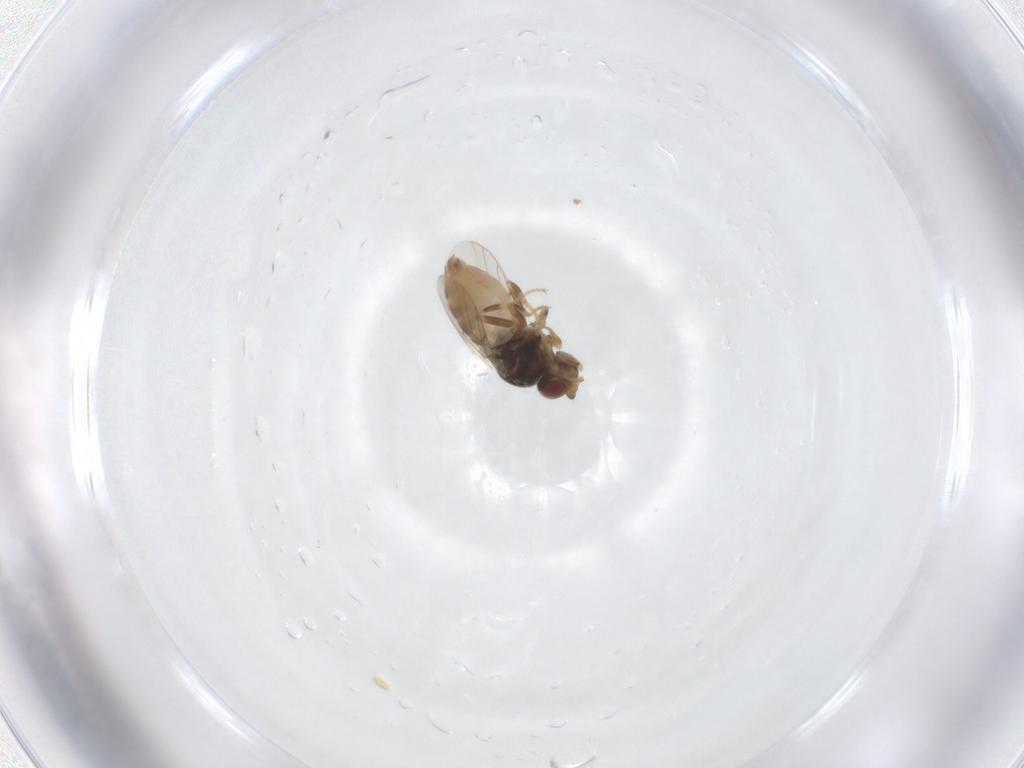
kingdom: Animalia
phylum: Arthropoda
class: Insecta
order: Diptera
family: Chloropidae
